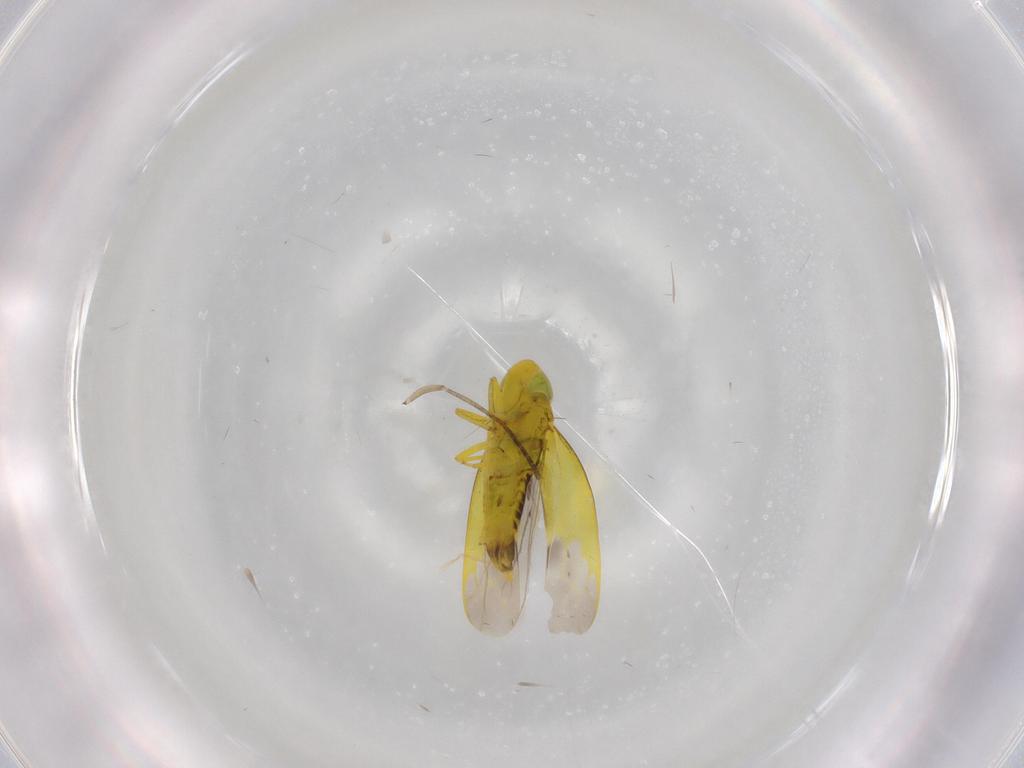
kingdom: Animalia
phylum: Arthropoda
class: Insecta
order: Hemiptera
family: Cicadellidae
